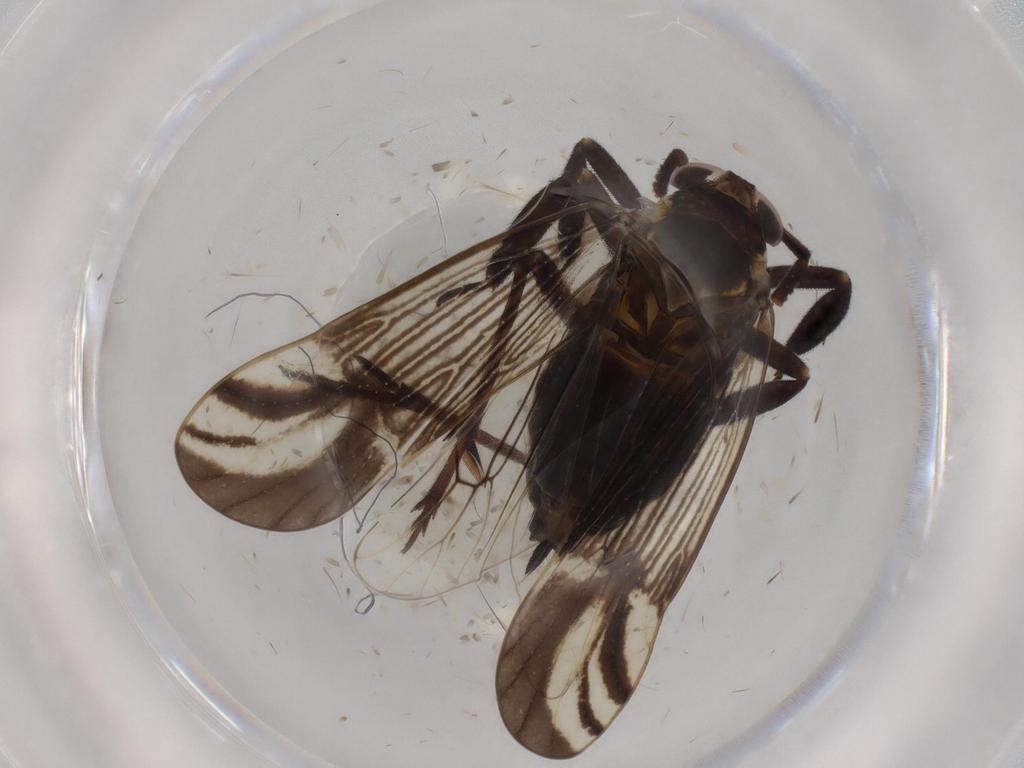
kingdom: Animalia
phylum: Arthropoda
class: Insecta
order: Hemiptera
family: Delphacidae
